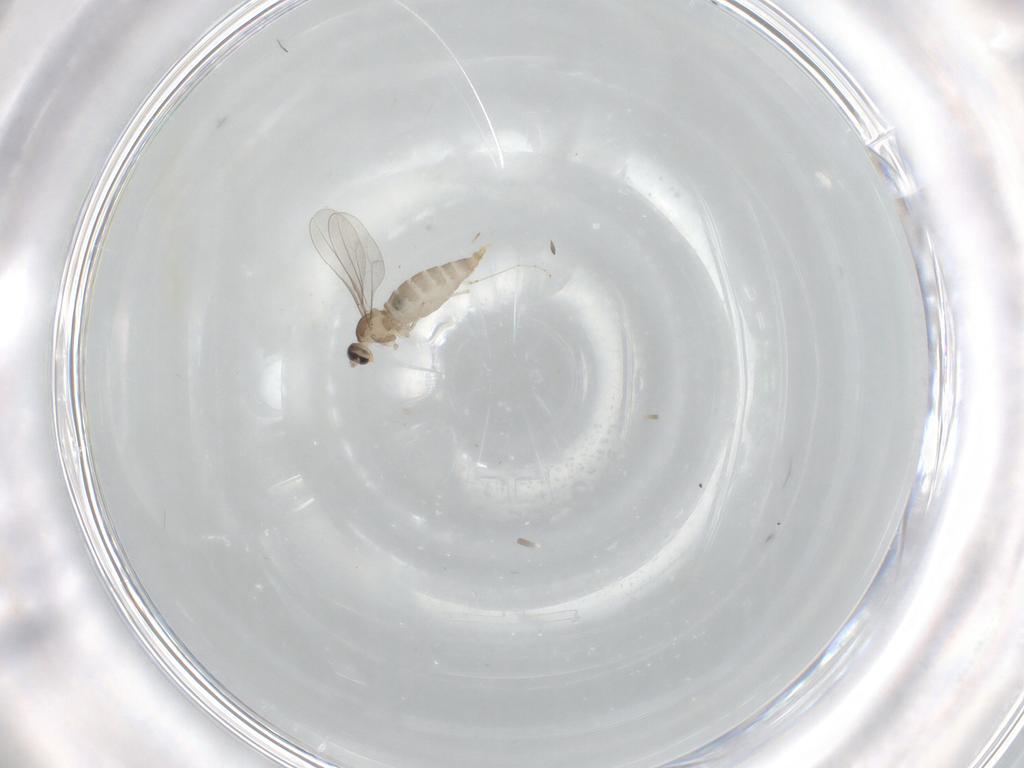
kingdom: Animalia
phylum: Arthropoda
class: Insecta
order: Diptera
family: Cecidomyiidae
